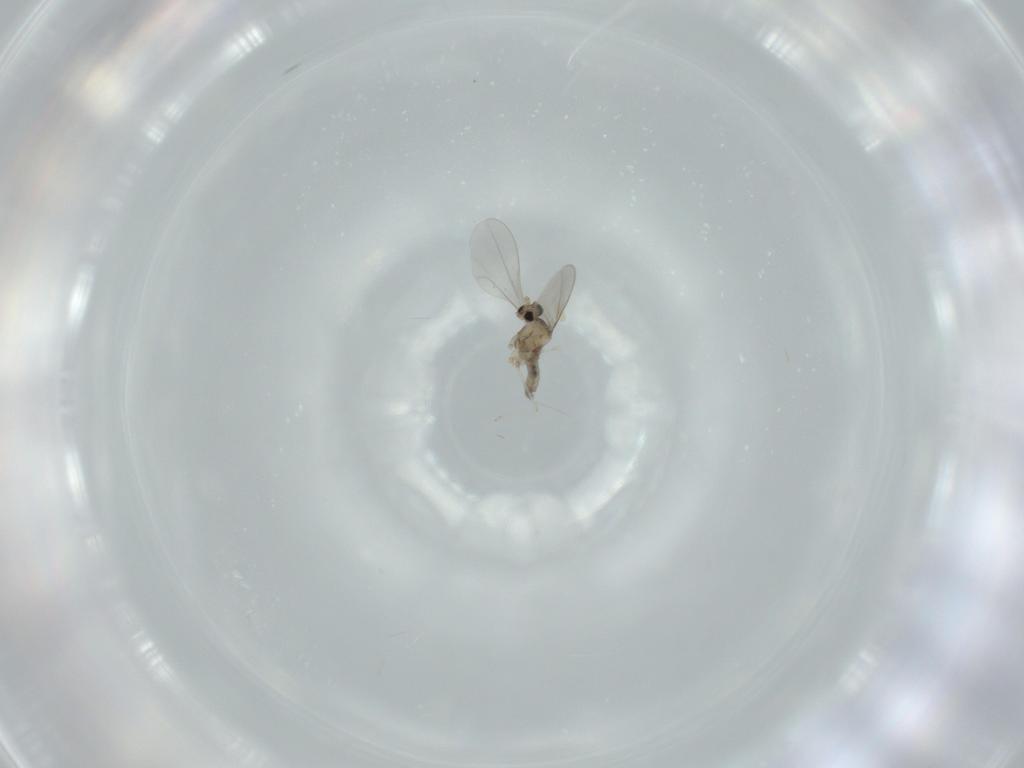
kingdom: Animalia
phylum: Arthropoda
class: Insecta
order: Diptera
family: Cecidomyiidae
